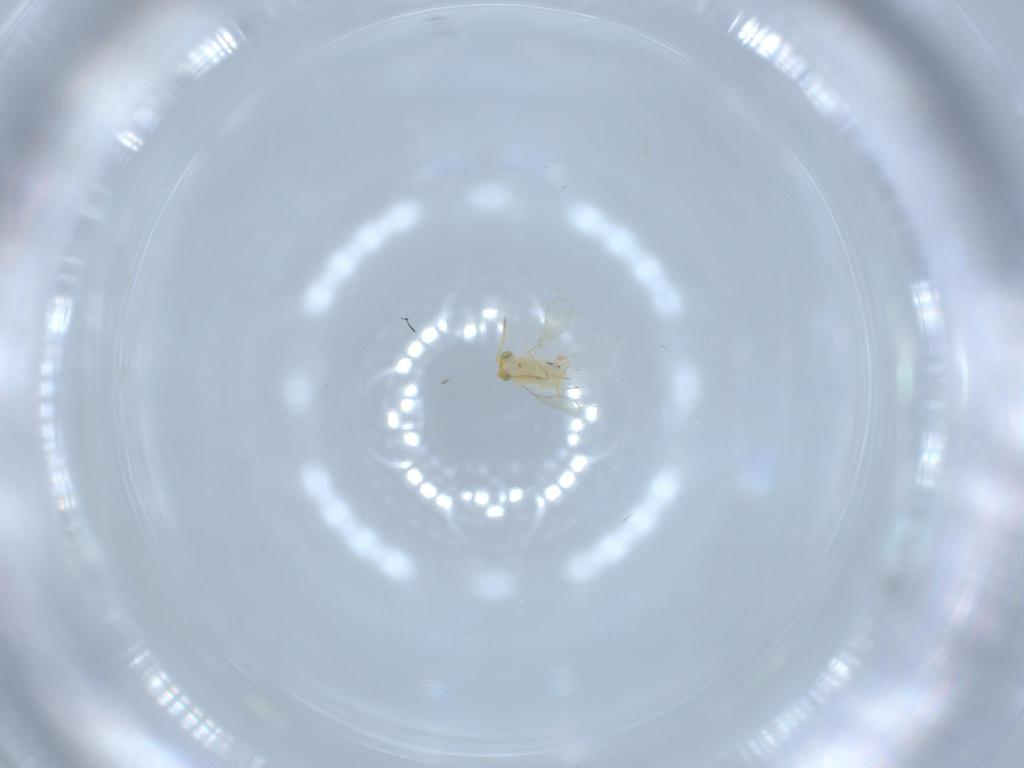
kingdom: Animalia
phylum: Arthropoda
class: Insecta
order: Hymenoptera
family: Aphelinidae
